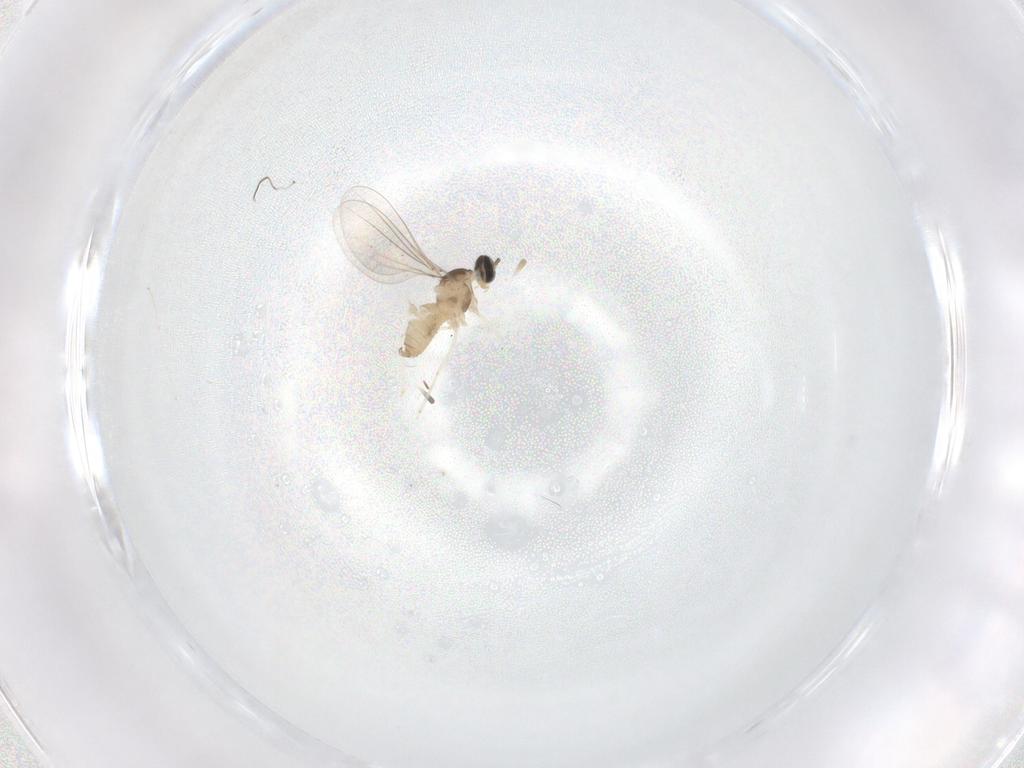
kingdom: Animalia
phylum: Arthropoda
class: Insecta
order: Diptera
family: Cecidomyiidae
